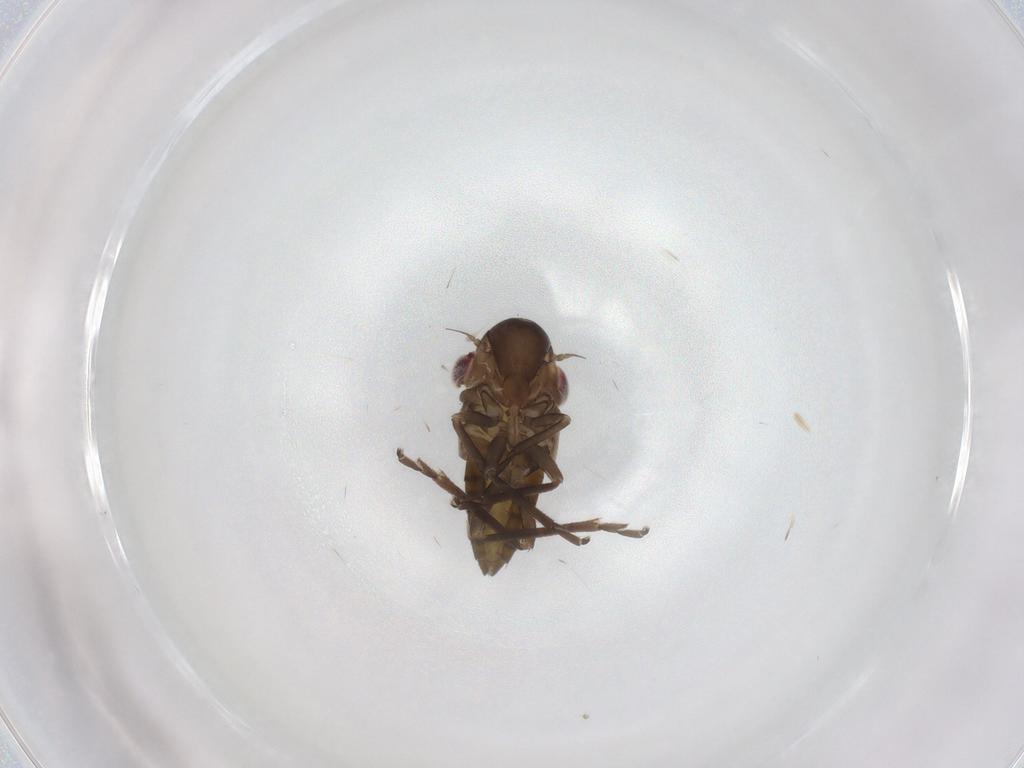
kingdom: Animalia
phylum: Arthropoda
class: Insecta
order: Hemiptera
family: Cicadellidae
